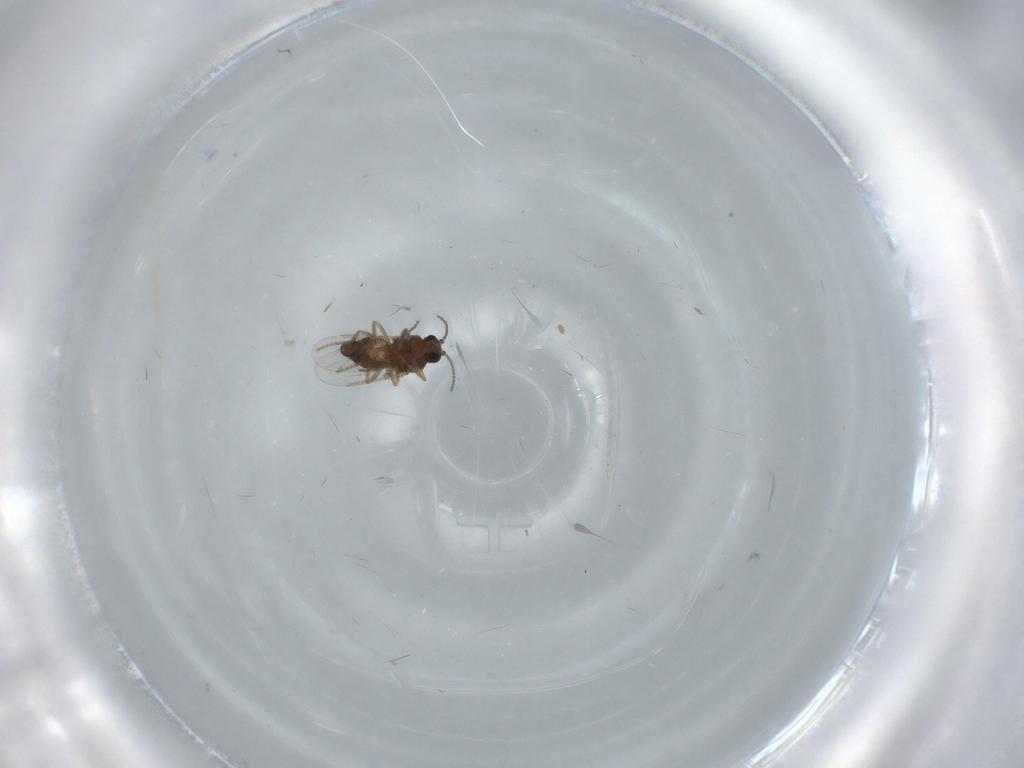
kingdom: Animalia
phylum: Arthropoda
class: Insecta
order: Diptera
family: Ceratopogonidae
